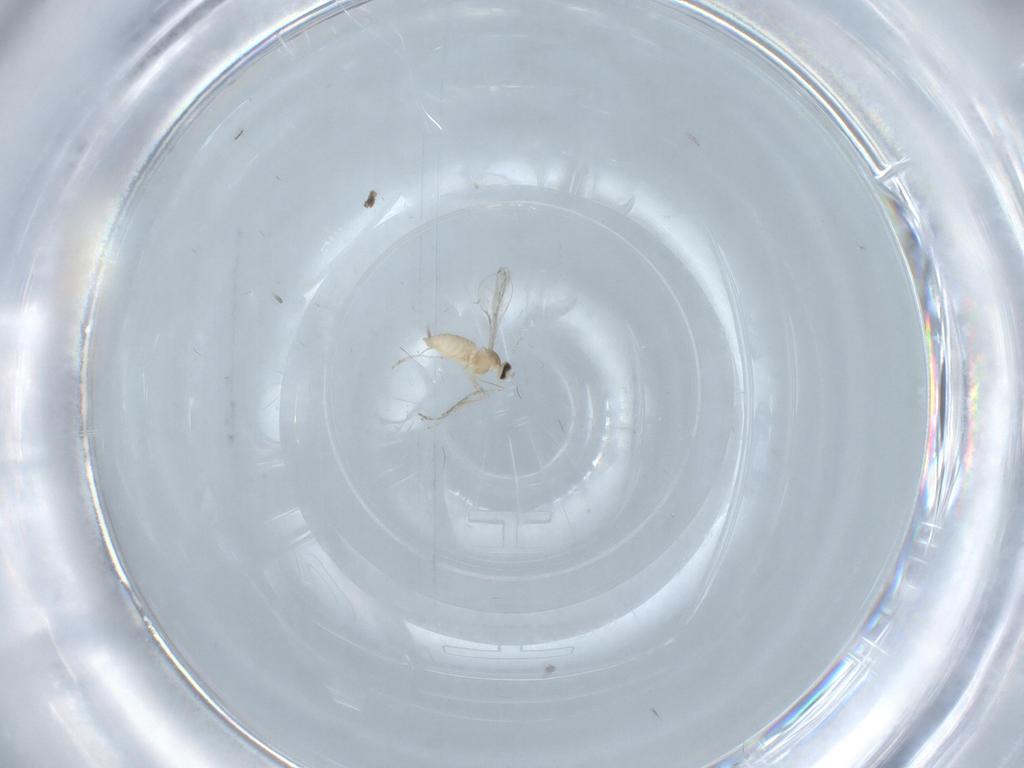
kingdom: Animalia
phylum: Arthropoda
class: Insecta
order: Diptera
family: Cecidomyiidae
